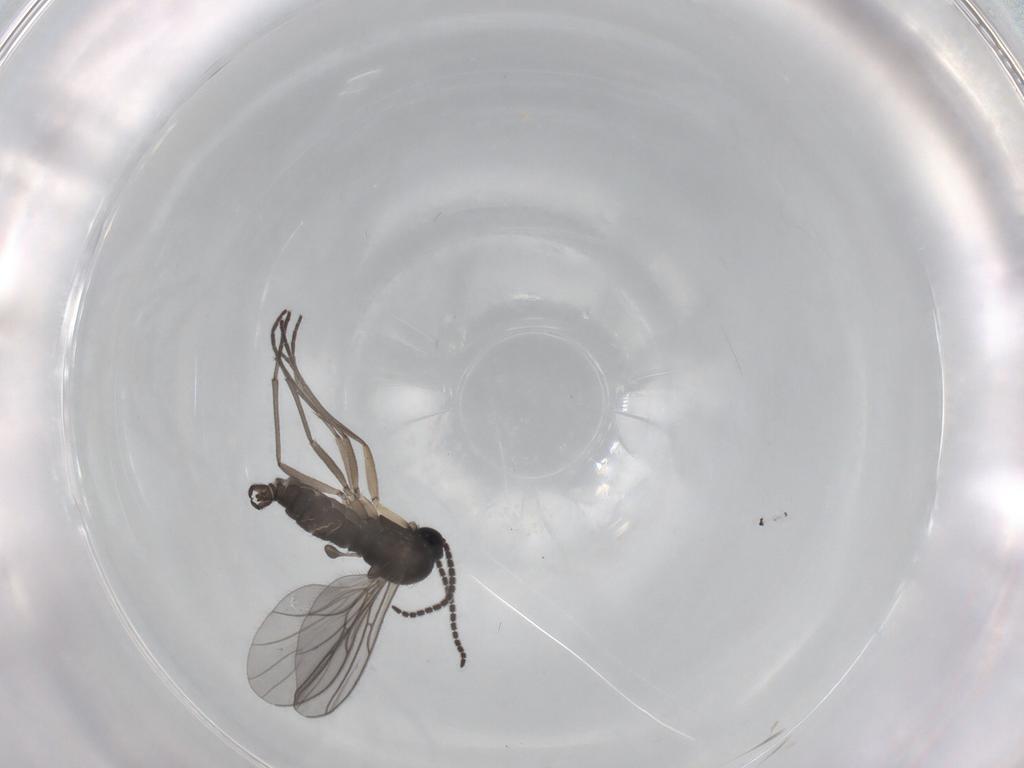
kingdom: Animalia
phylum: Arthropoda
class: Insecta
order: Diptera
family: Sciaridae
